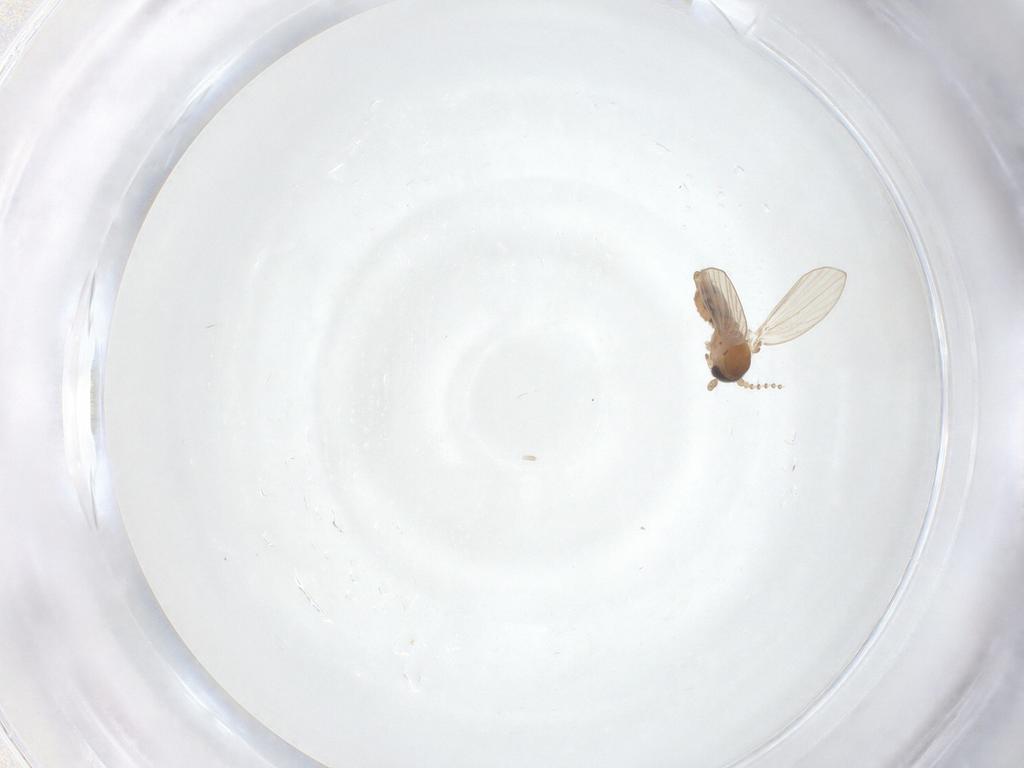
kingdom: Animalia
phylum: Arthropoda
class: Insecta
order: Diptera
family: Psychodidae
